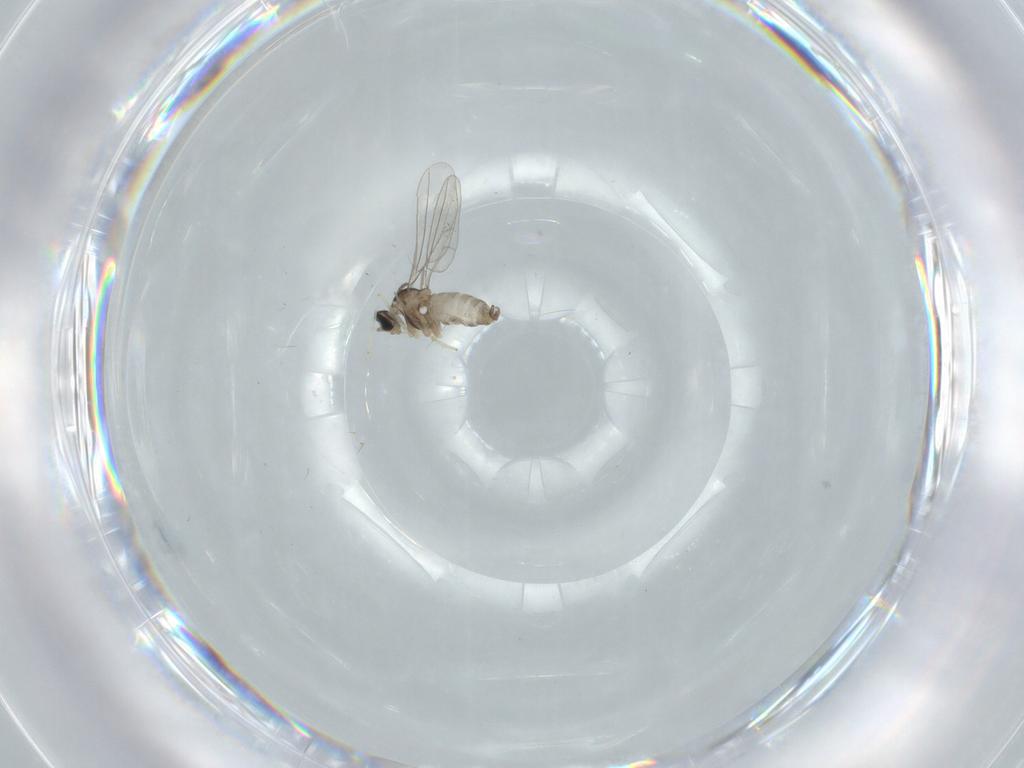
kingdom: Animalia
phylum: Arthropoda
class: Insecta
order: Diptera
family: Cecidomyiidae
